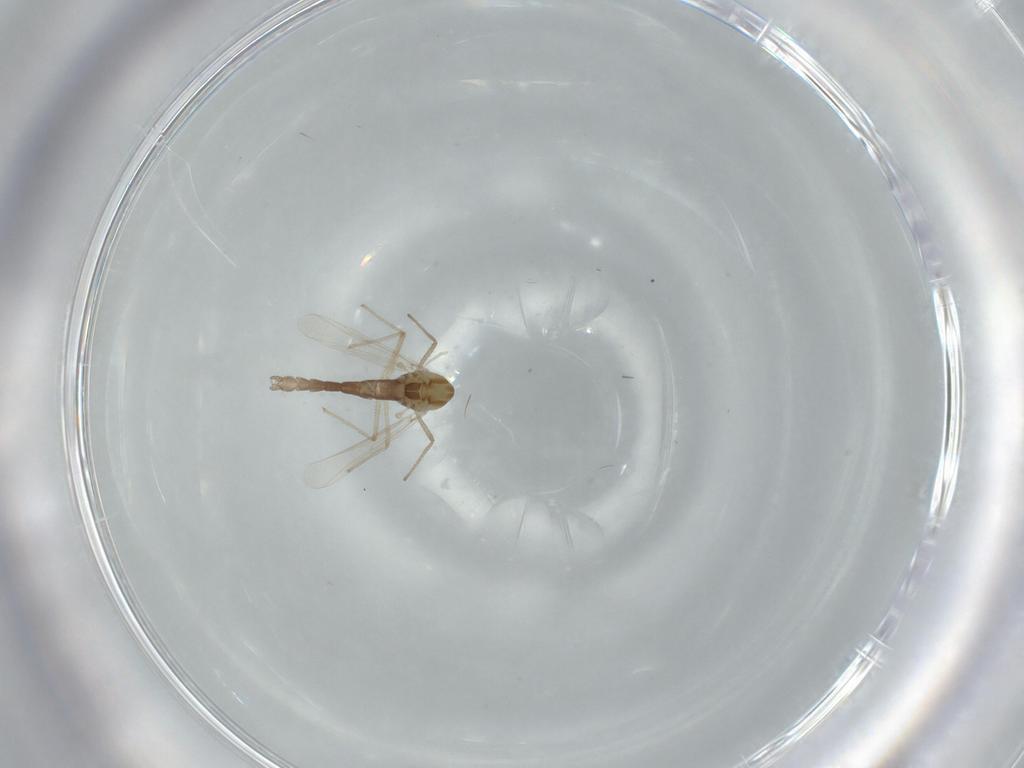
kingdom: Animalia
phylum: Arthropoda
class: Insecta
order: Diptera
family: Chironomidae
